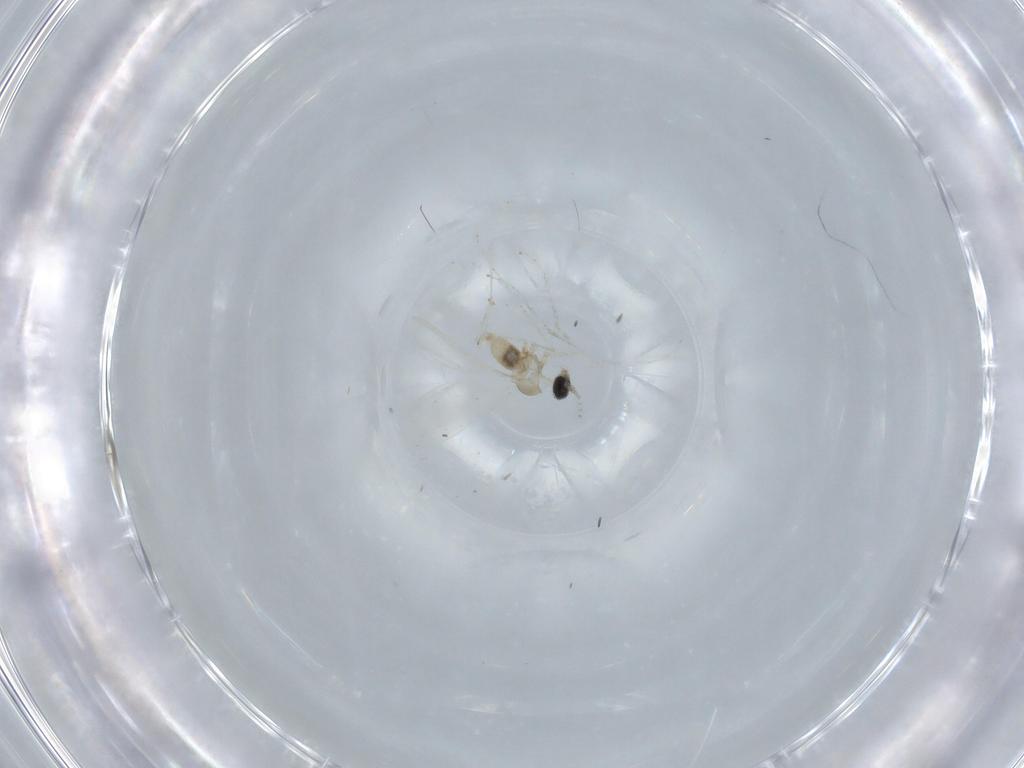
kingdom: Animalia
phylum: Arthropoda
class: Insecta
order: Diptera
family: Cecidomyiidae
